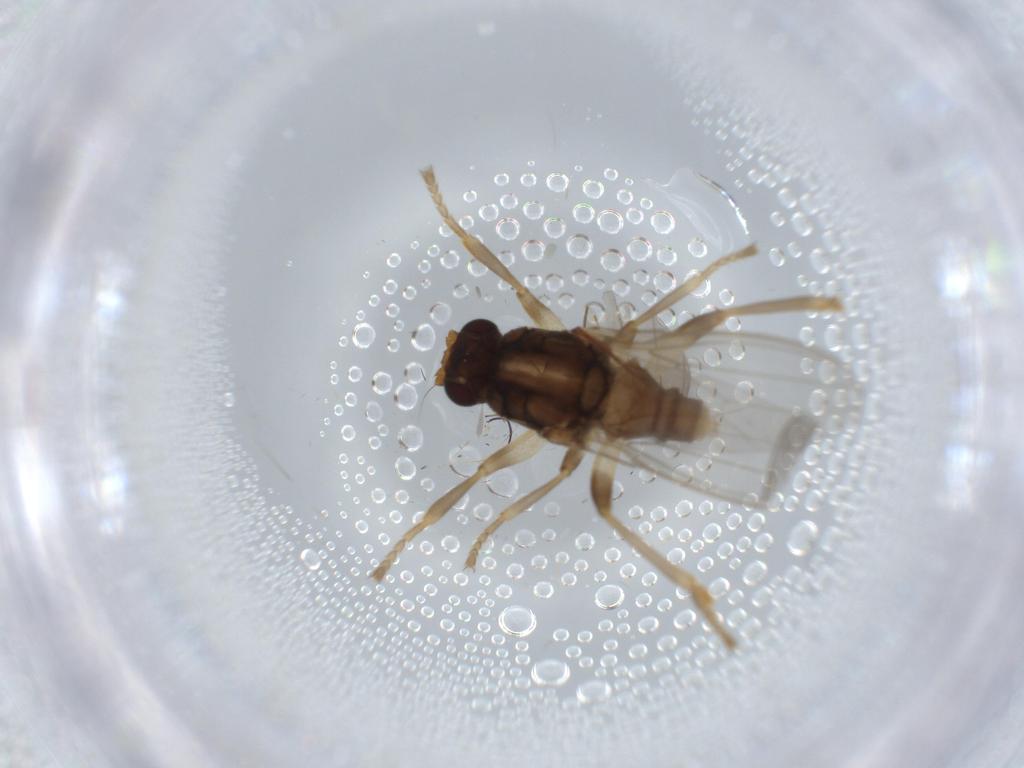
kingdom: Animalia
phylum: Arthropoda
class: Insecta
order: Diptera
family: Sphaeroceridae
